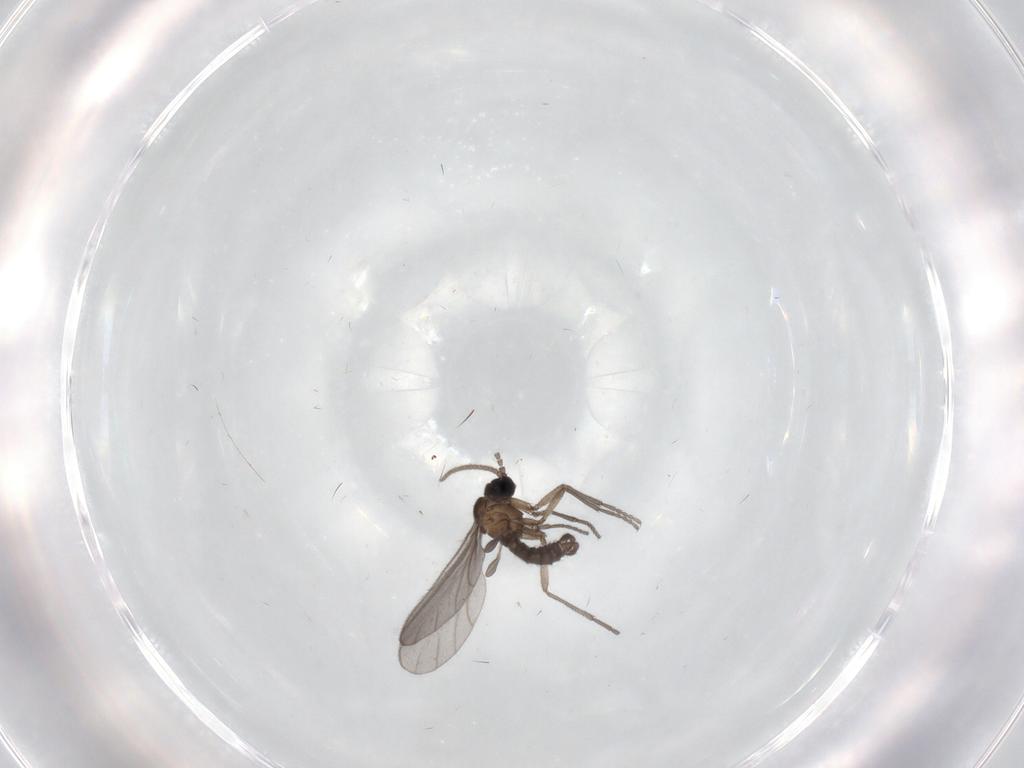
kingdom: Animalia
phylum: Arthropoda
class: Insecta
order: Diptera
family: Sciaridae
